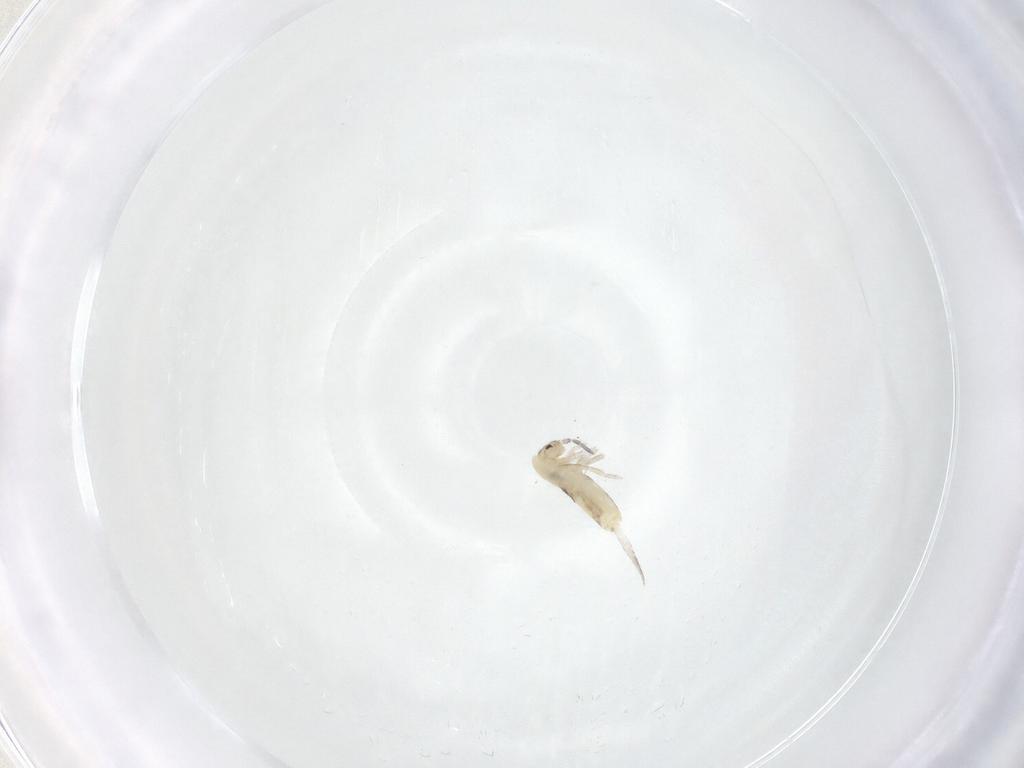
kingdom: Animalia
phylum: Arthropoda
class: Collembola
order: Entomobryomorpha
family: Entomobryidae
